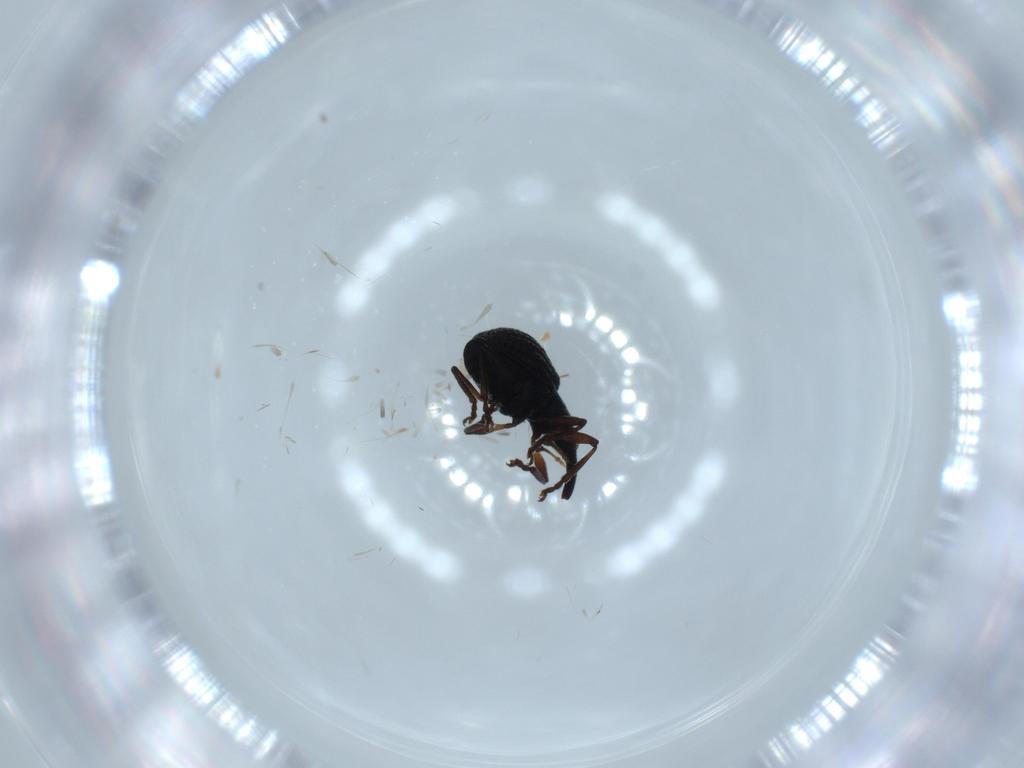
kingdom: Animalia
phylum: Arthropoda
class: Insecta
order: Coleoptera
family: Brentidae
